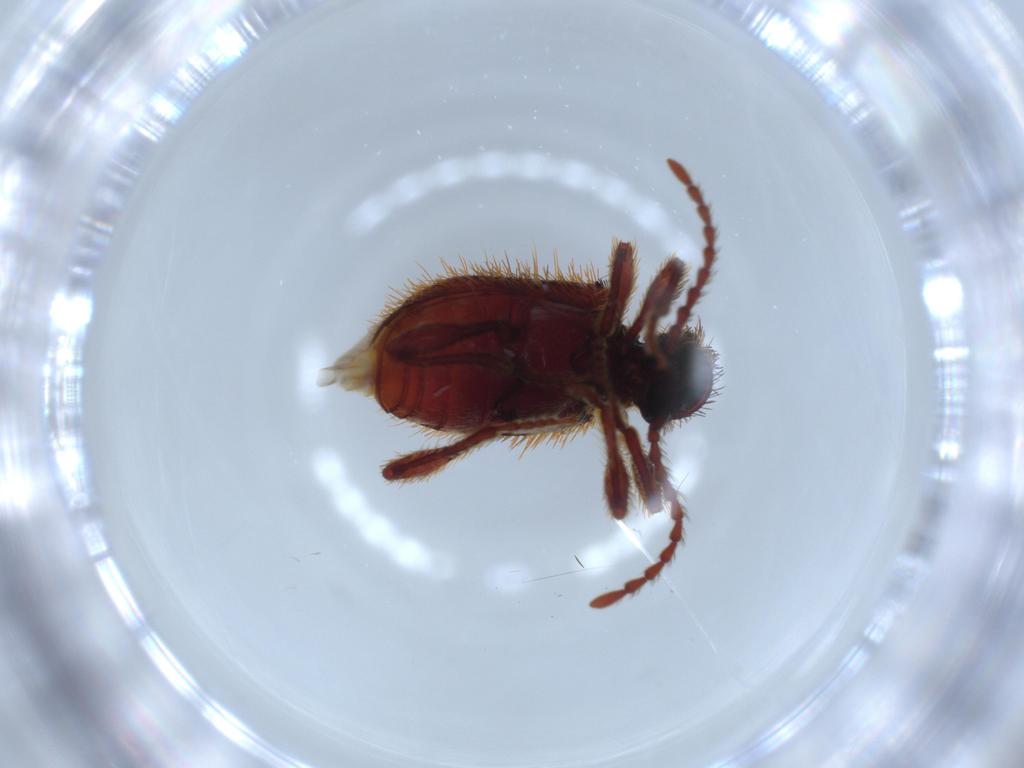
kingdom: Animalia
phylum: Arthropoda
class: Insecta
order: Coleoptera
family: Ptinidae
